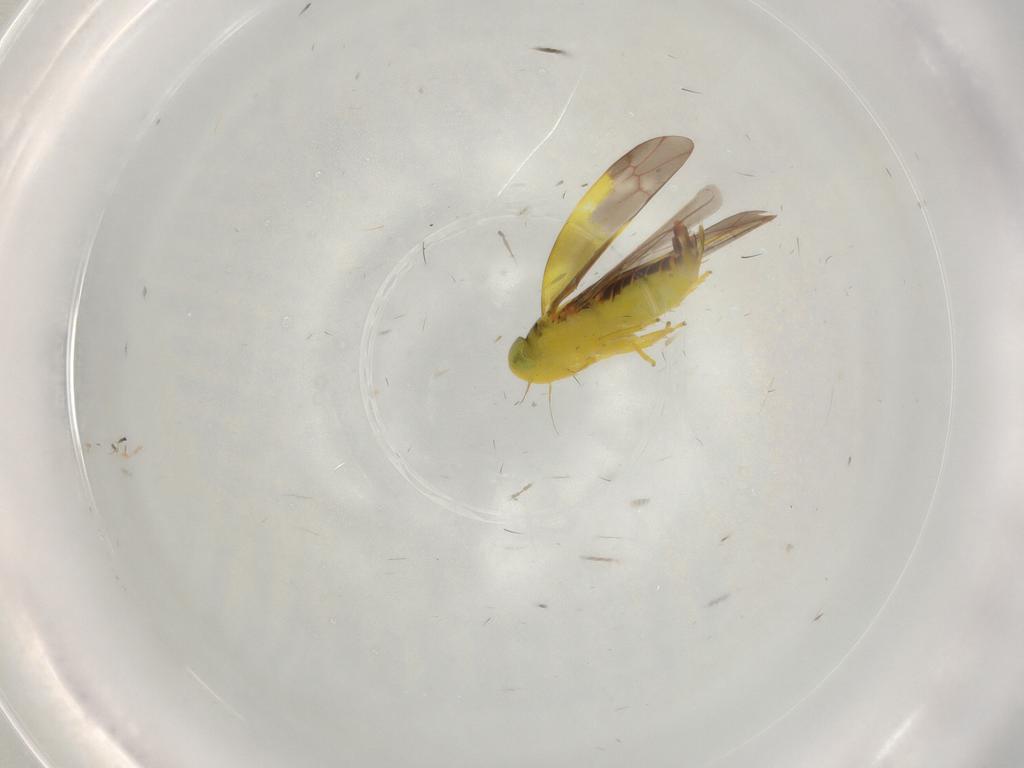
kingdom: Animalia
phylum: Arthropoda
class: Insecta
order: Hemiptera
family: Cicadellidae
